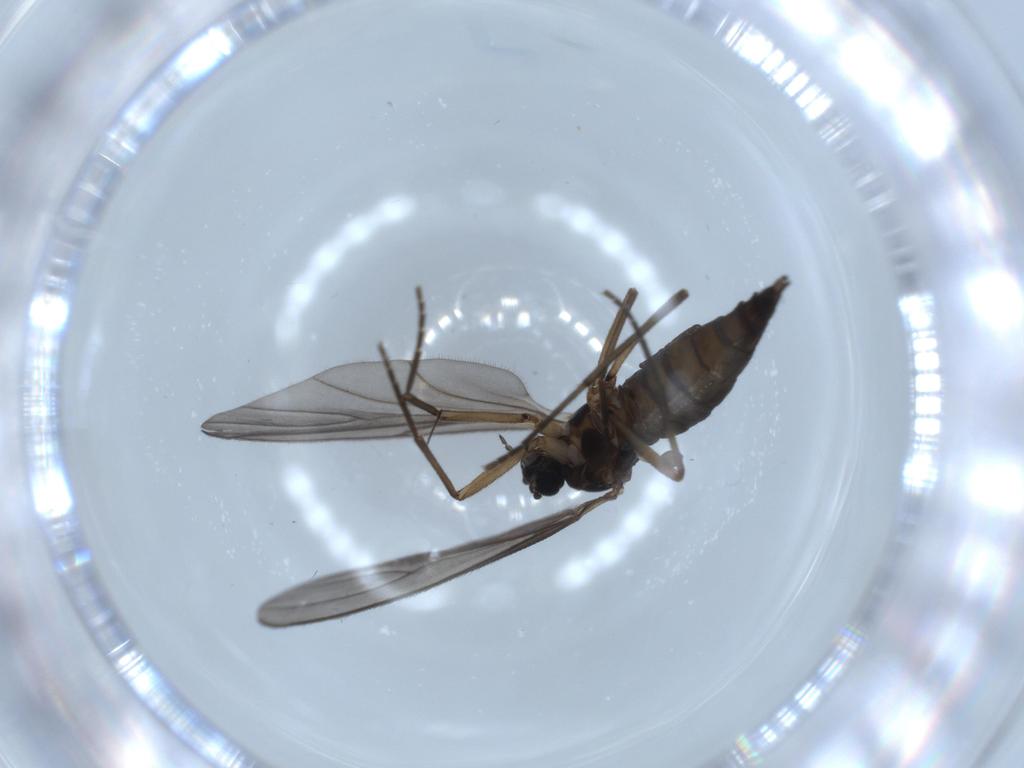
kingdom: Animalia
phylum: Arthropoda
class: Insecta
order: Diptera
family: Sciaridae
